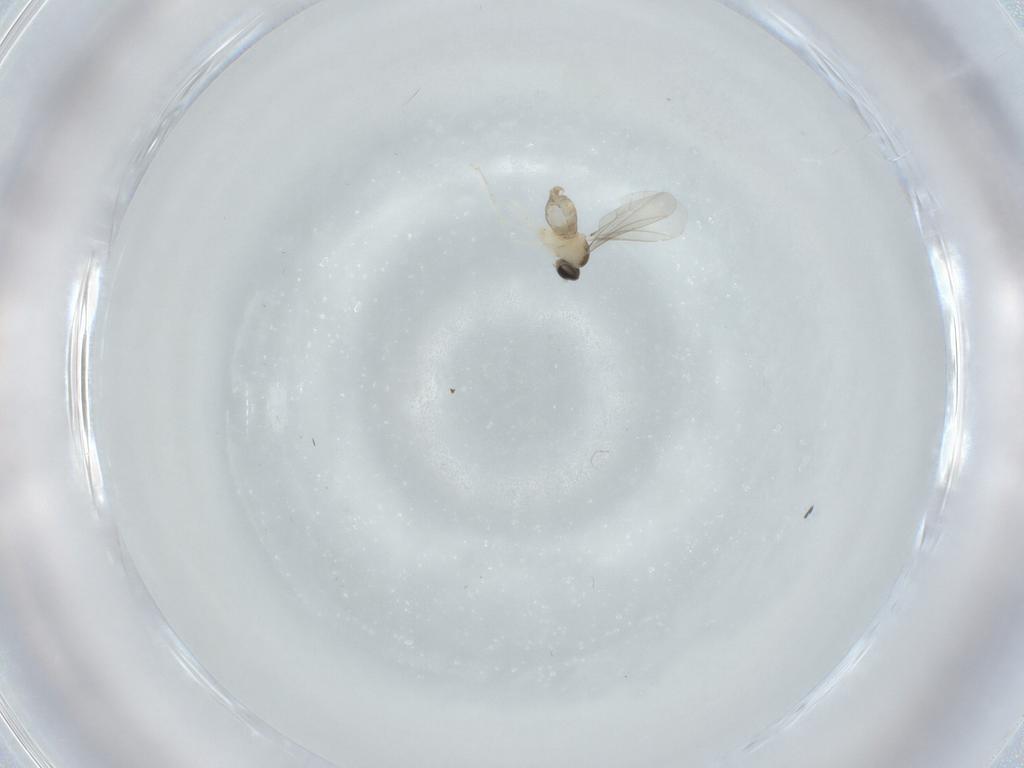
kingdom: Animalia
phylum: Arthropoda
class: Insecta
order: Diptera
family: Cecidomyiidae
